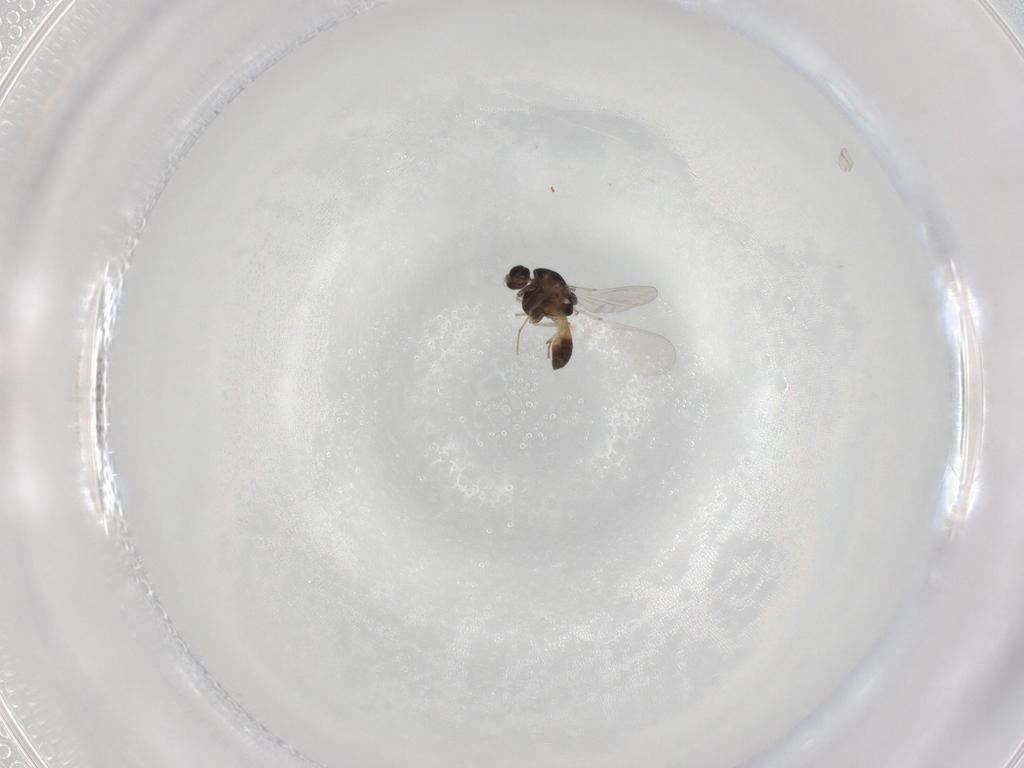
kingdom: Animalia
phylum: Arthropoda
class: Insecta
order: Diptera
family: Chironomidae
